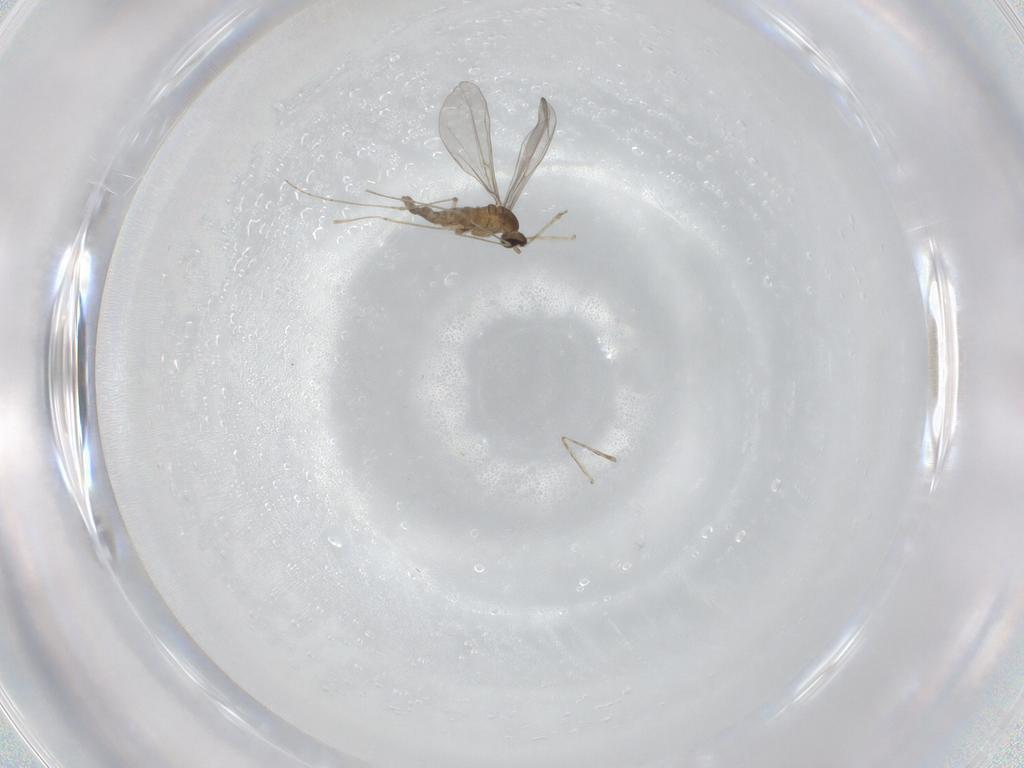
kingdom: Animalia
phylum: Arthropoda
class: Insecta
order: Diptera
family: Cecidomyiidae
